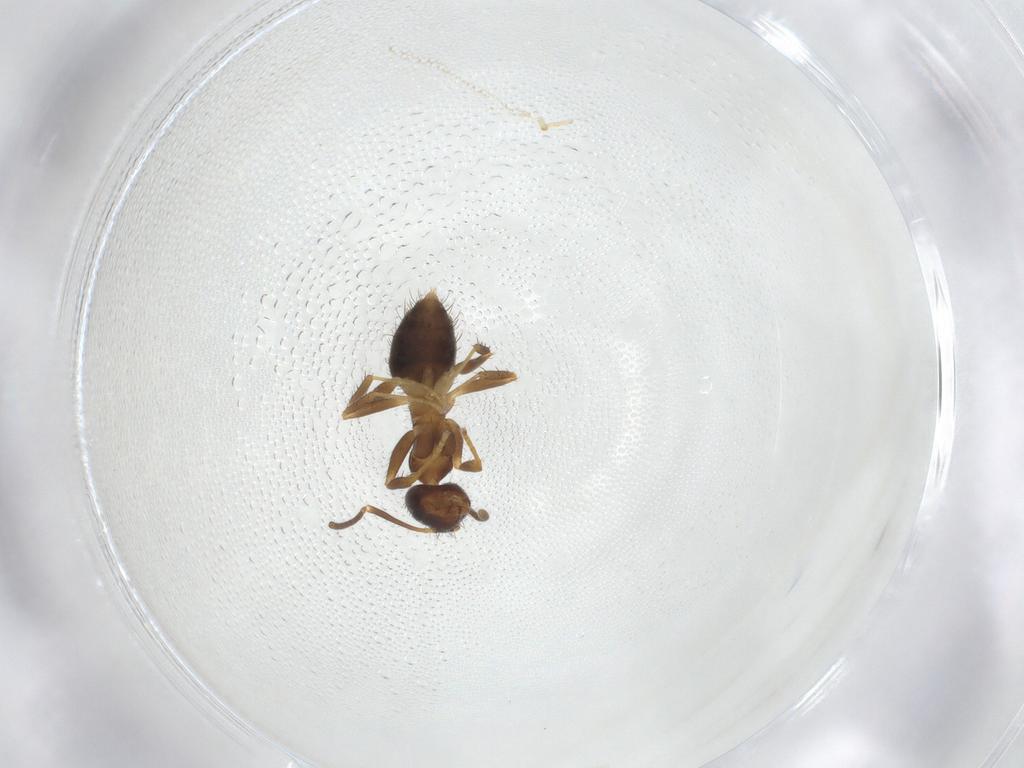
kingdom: Animalia
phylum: Arthropoda
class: Insecta
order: Hymenoptera
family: Formicidae
